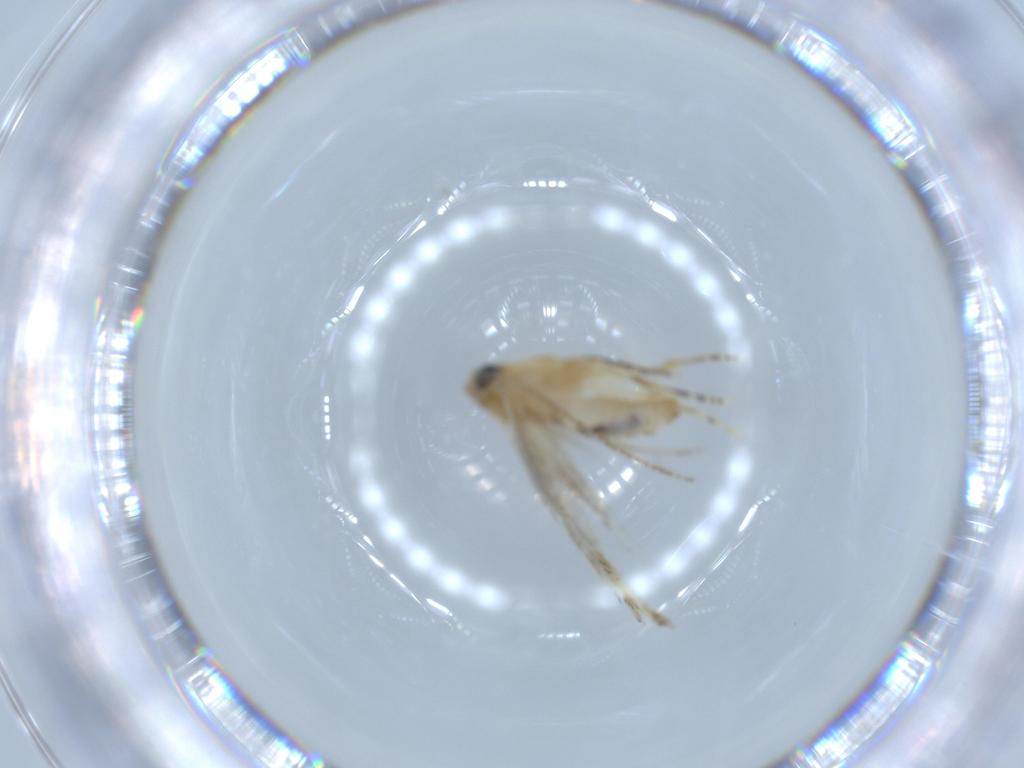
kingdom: Animalia
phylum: Arthropoda
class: Insecta
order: Lepidoptera
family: Bucculatricidae
